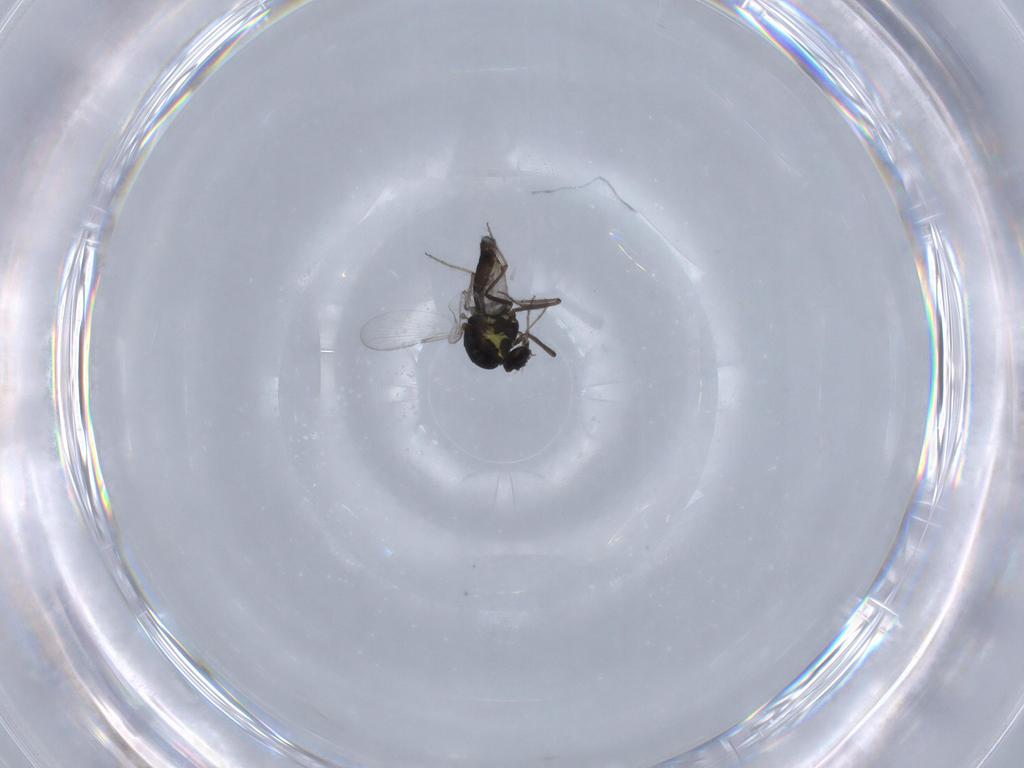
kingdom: Animalia
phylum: Arthropoda
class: Insecta
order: Diptera
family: Ceratopogonidae
